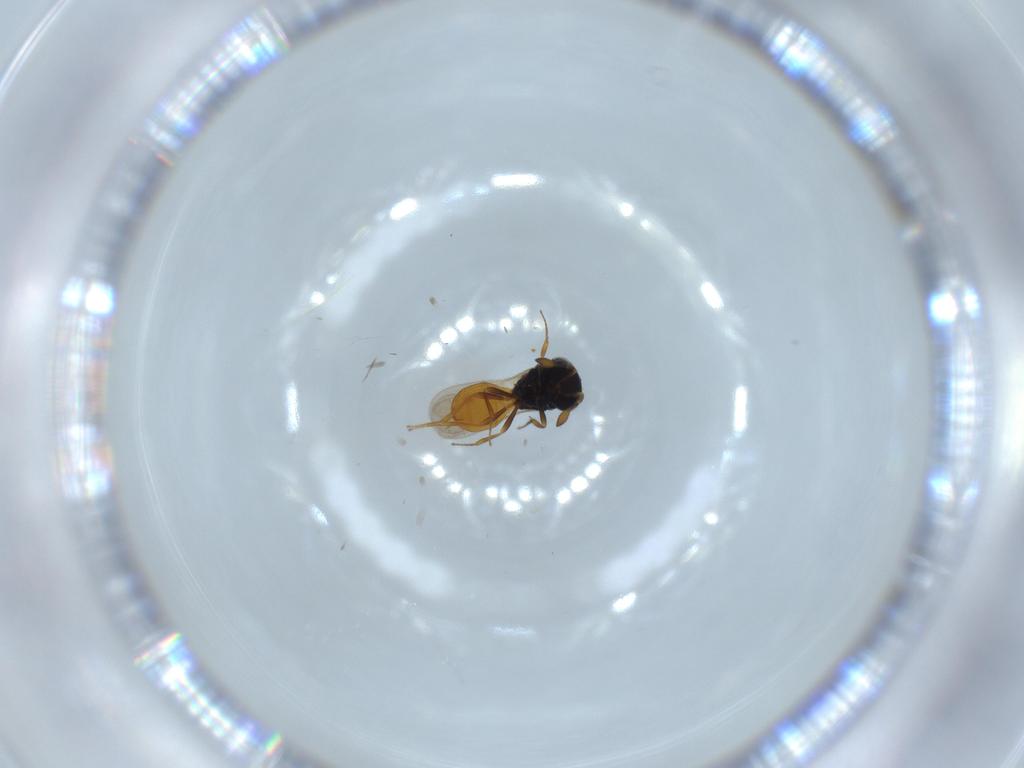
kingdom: Animalia
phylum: Arthropoda
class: Insecta
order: Hymenoptera
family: Scelionidae
